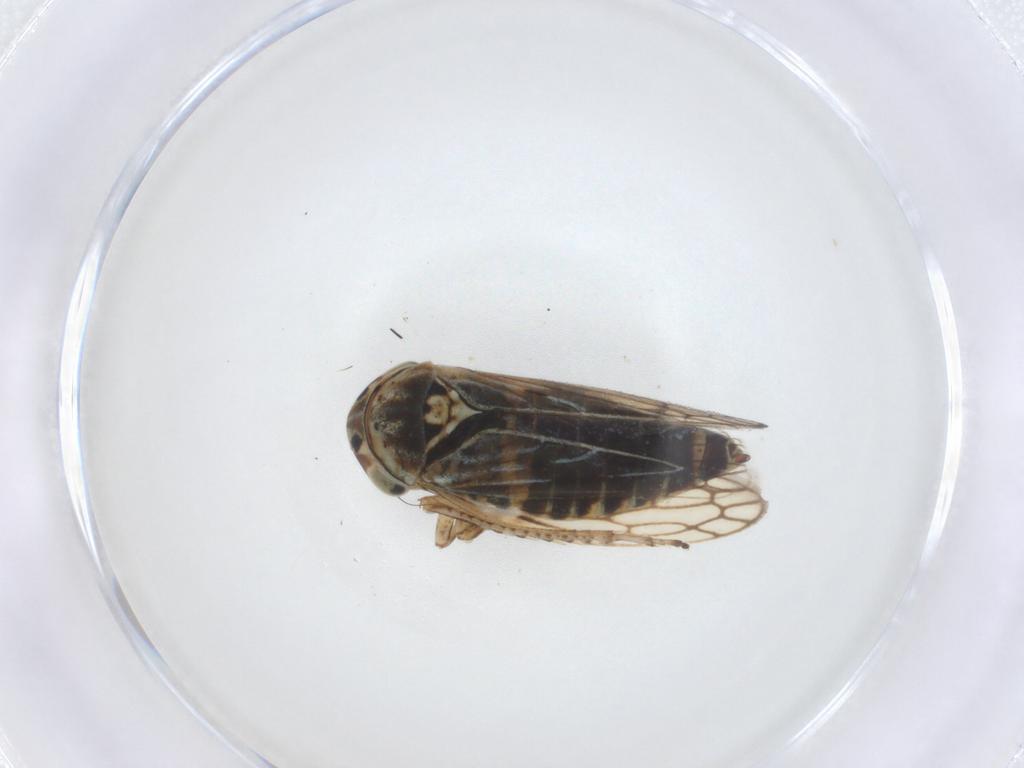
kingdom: Animalia
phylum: Arthropoda
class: Insecta
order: Hemiptera
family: Cicadellidae
